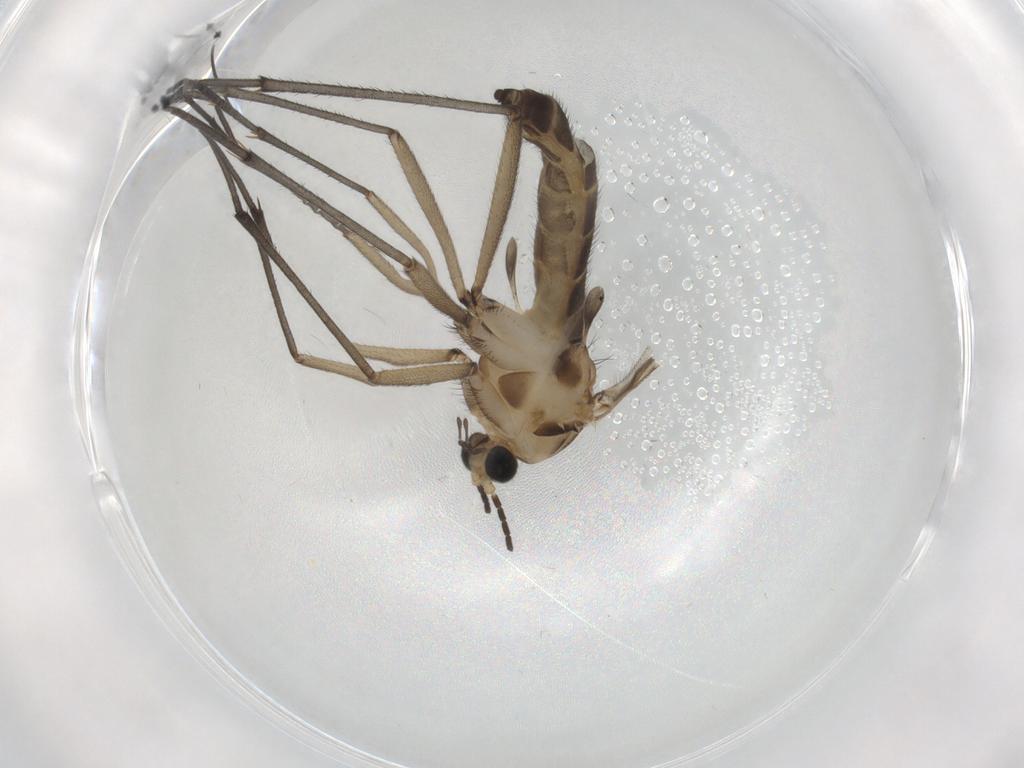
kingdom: Animalia
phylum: Arthropoda
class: Insecta
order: Diptera
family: Sciaridae
